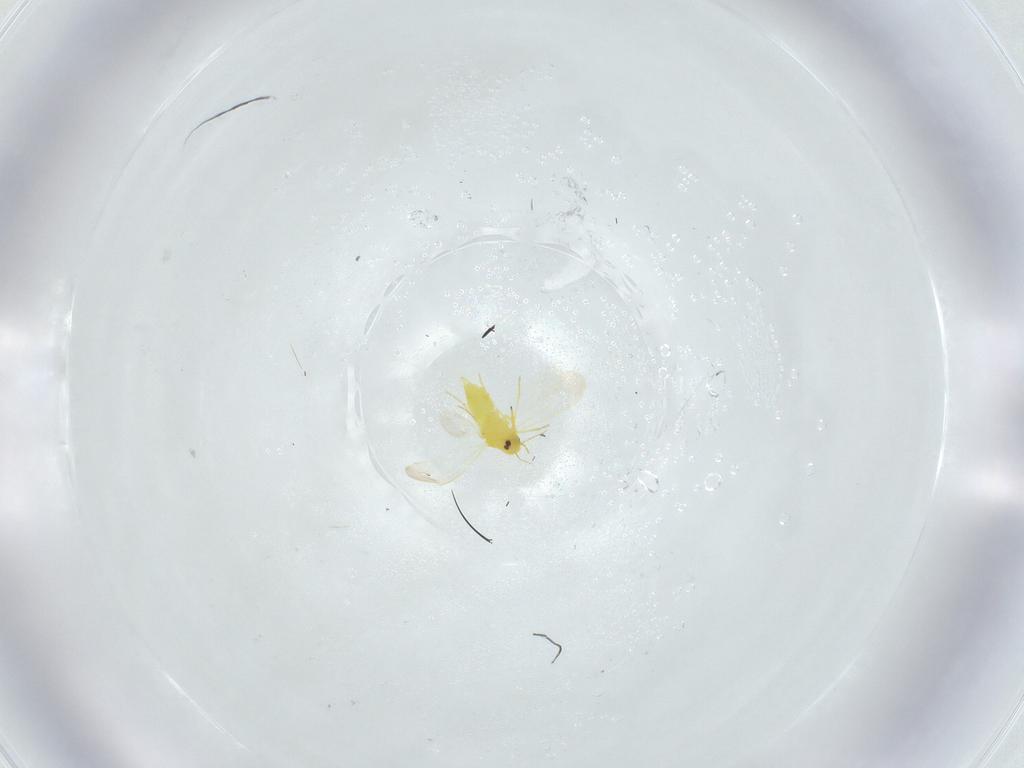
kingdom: Animalia
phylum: Arthropoda
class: Insecta
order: Hemiptera
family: Aleyrodidae
